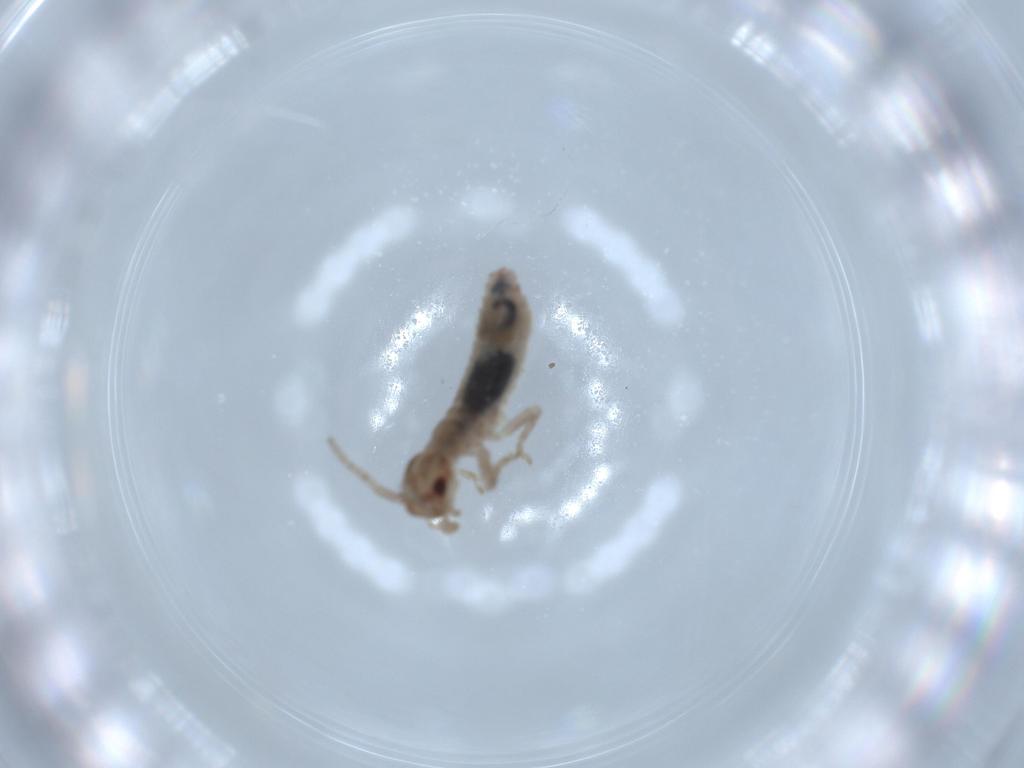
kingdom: Animalia
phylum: Arthropoda
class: Insecta
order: Orthoptera
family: Mogoplistidae
